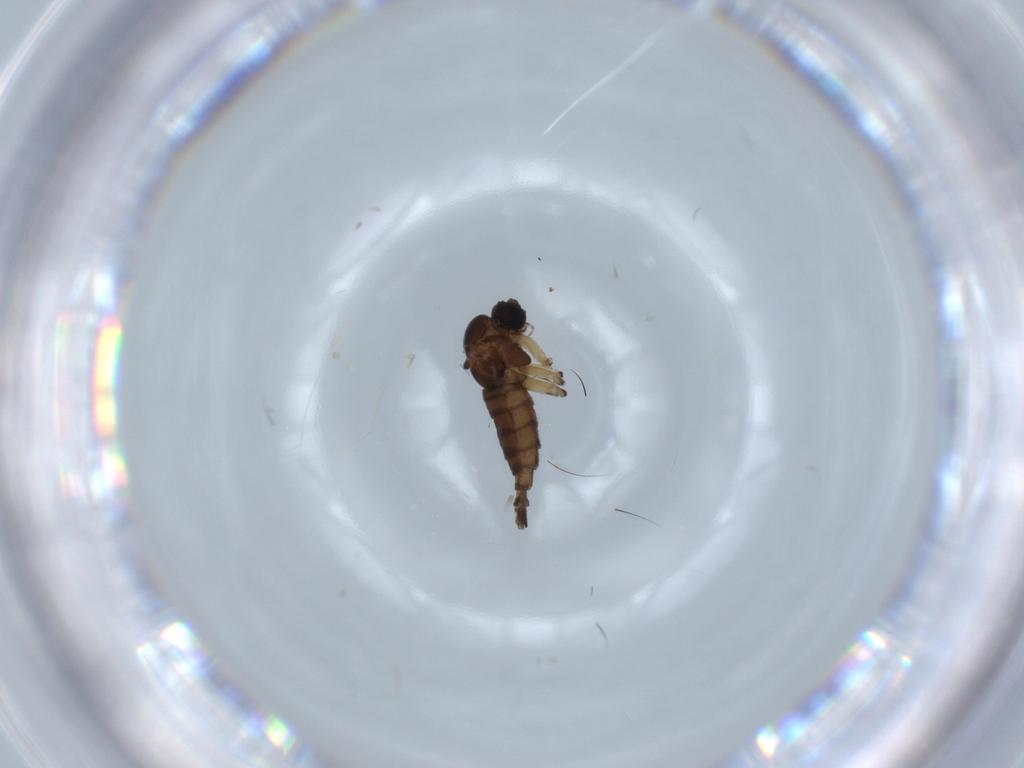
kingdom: Animalia
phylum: Arthropoda
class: Insecta
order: Diptera
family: Sciaridae
